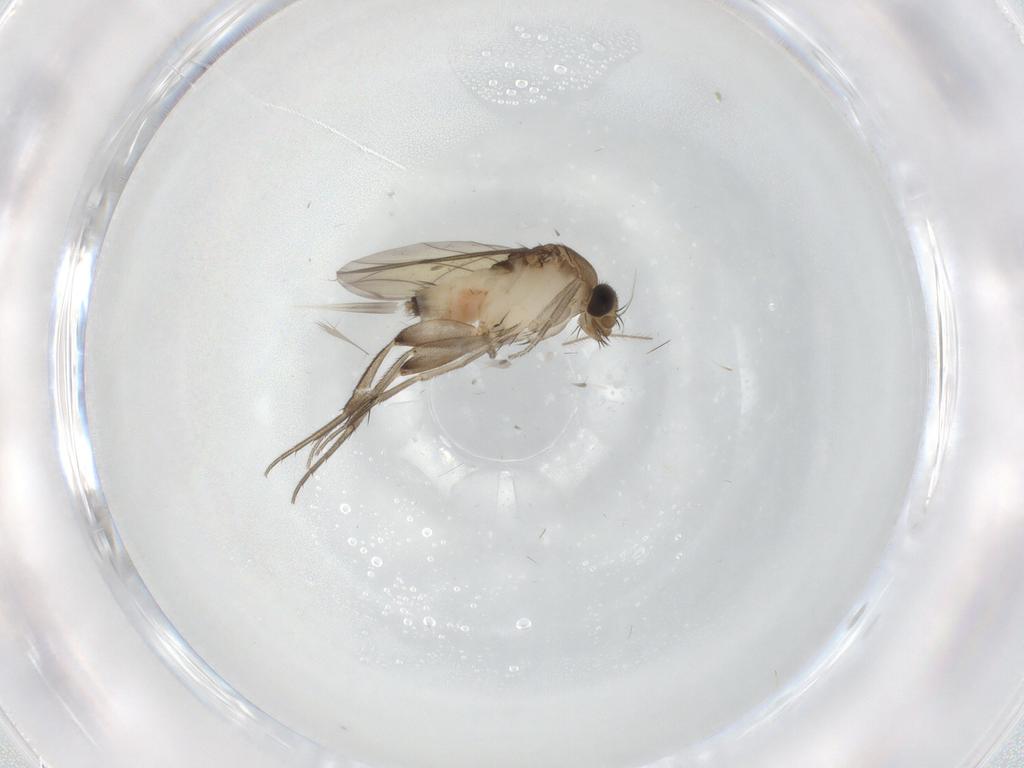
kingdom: Animalia
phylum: Arthropoda
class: Insecta
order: Diptera
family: Phoridae
